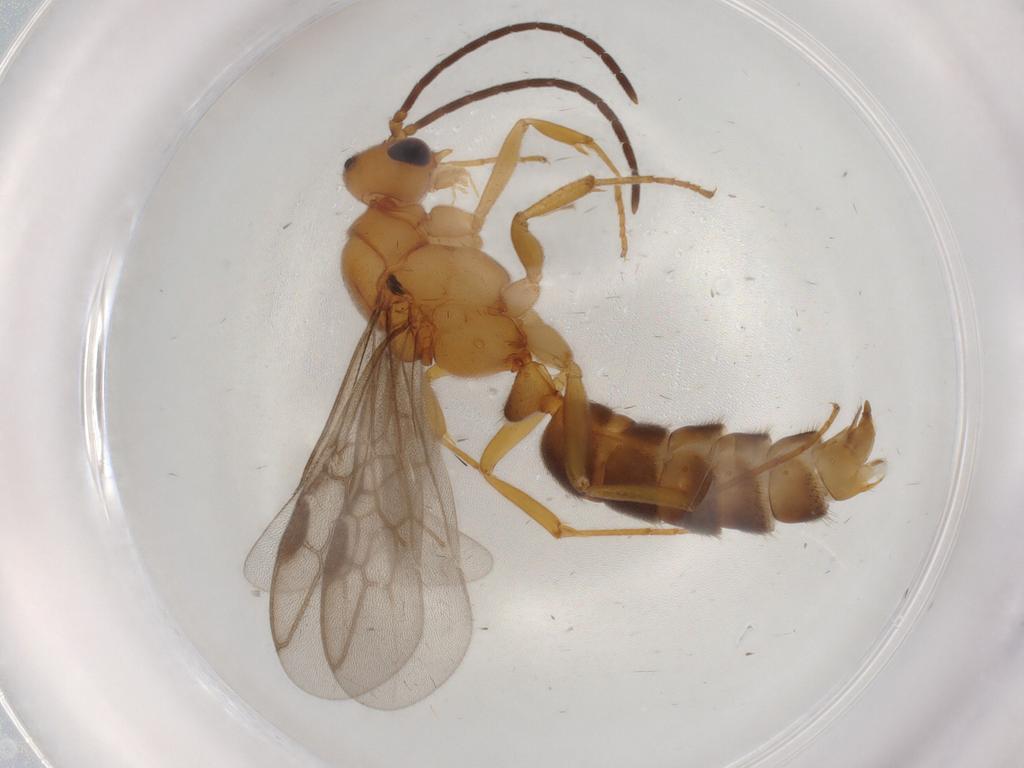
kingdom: Animalia
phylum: Arthropoda
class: Insecta
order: Hymenoptera
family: Formicidae
